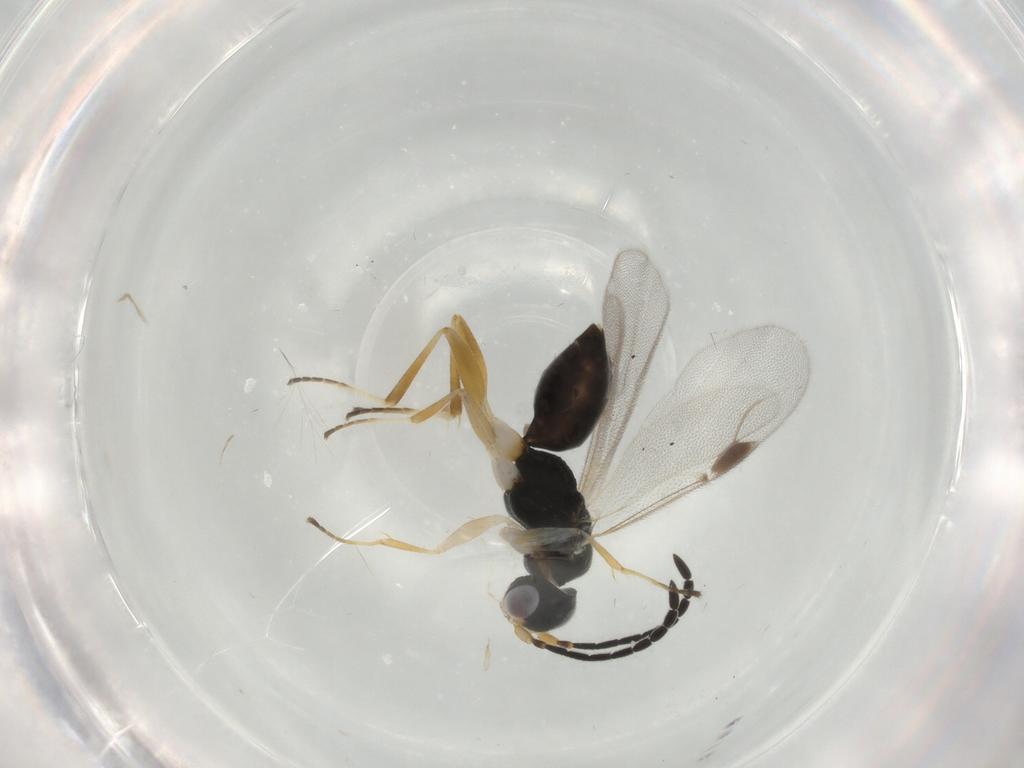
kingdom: Animalia
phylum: Arthropoda
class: Insecta
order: Hymenoptera
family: Dryinidae
